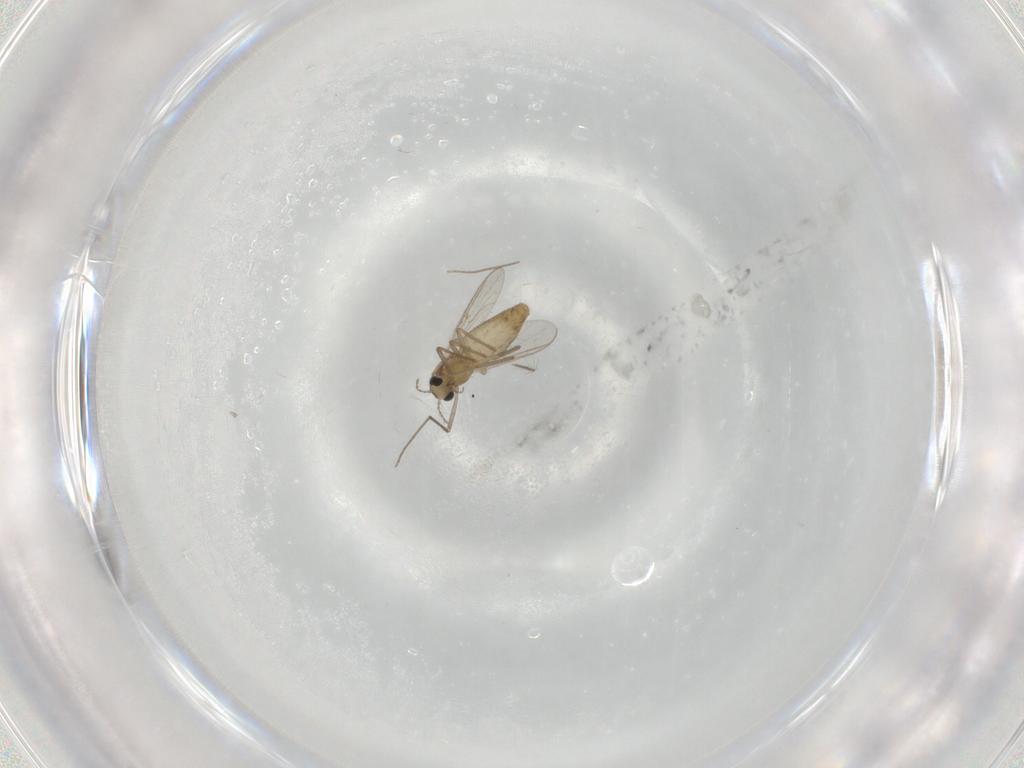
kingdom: Animalia
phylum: Arthropoda
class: Insecta
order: Diptera
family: Chironomidae
